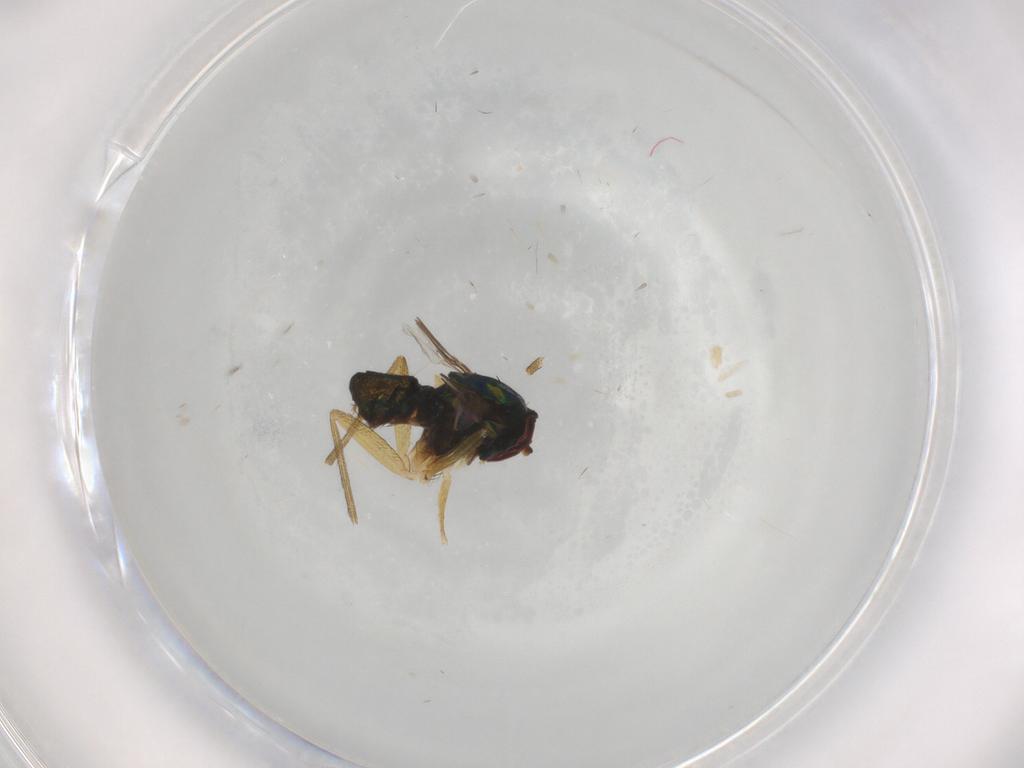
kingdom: Animalia
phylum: Arthropoda
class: Insecta
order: Diptera
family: Dolichopodidae
